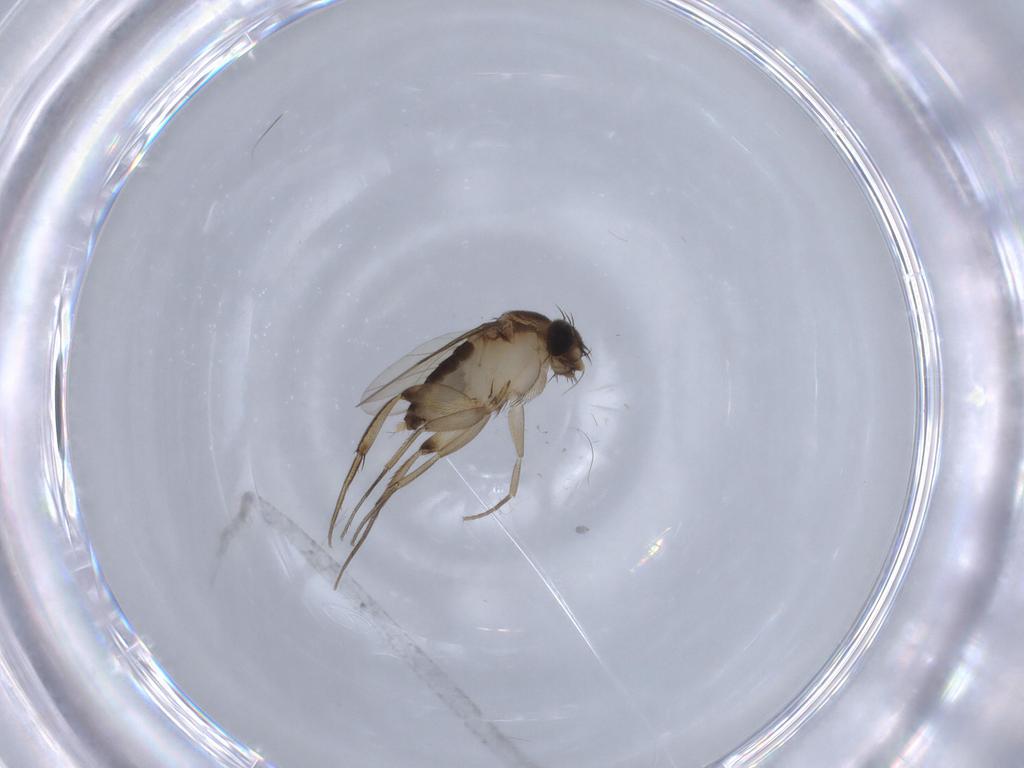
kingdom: Animalia
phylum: Arthropoda
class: Insecta
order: Diptera
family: Phoridae
